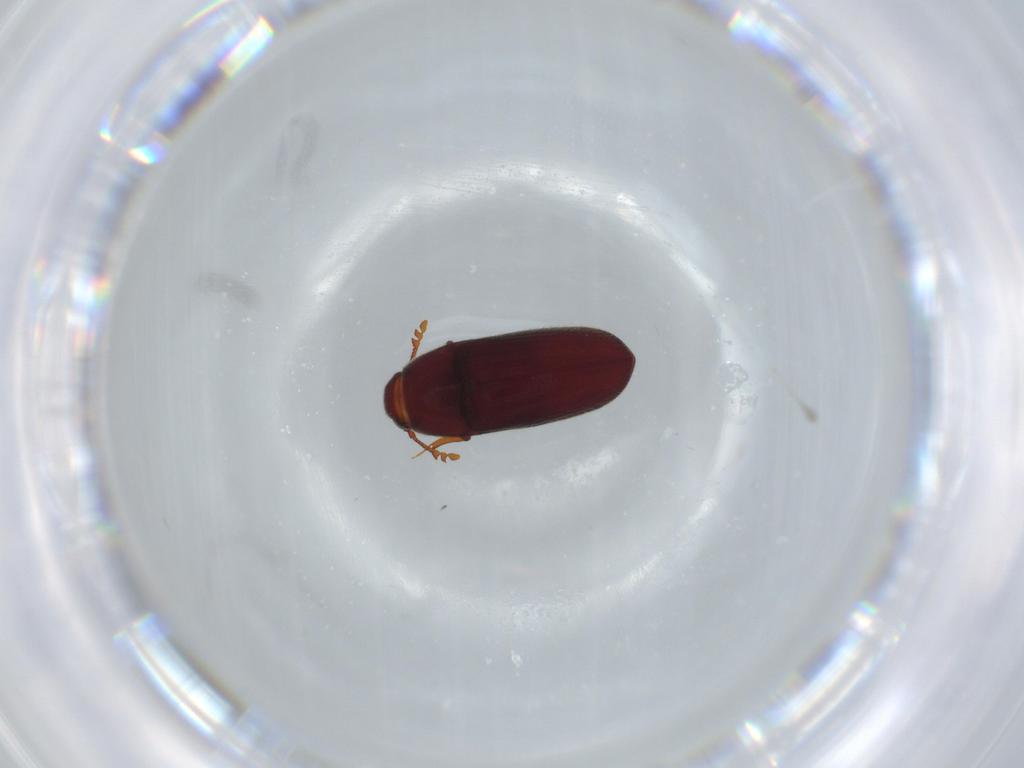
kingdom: Animalia
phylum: Arthropoda
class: Insecta
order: Coleoptera
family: Throscidae
